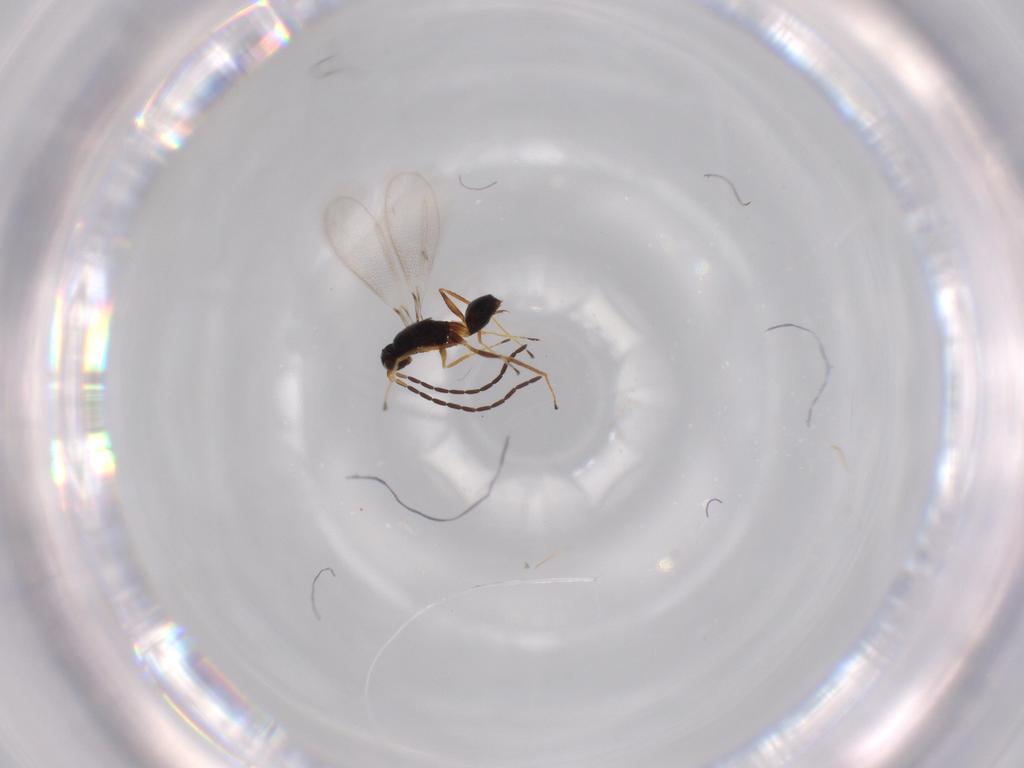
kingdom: Animalia
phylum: Arthropoda
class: Insecta
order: Hymenoptera
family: Mymaridae
